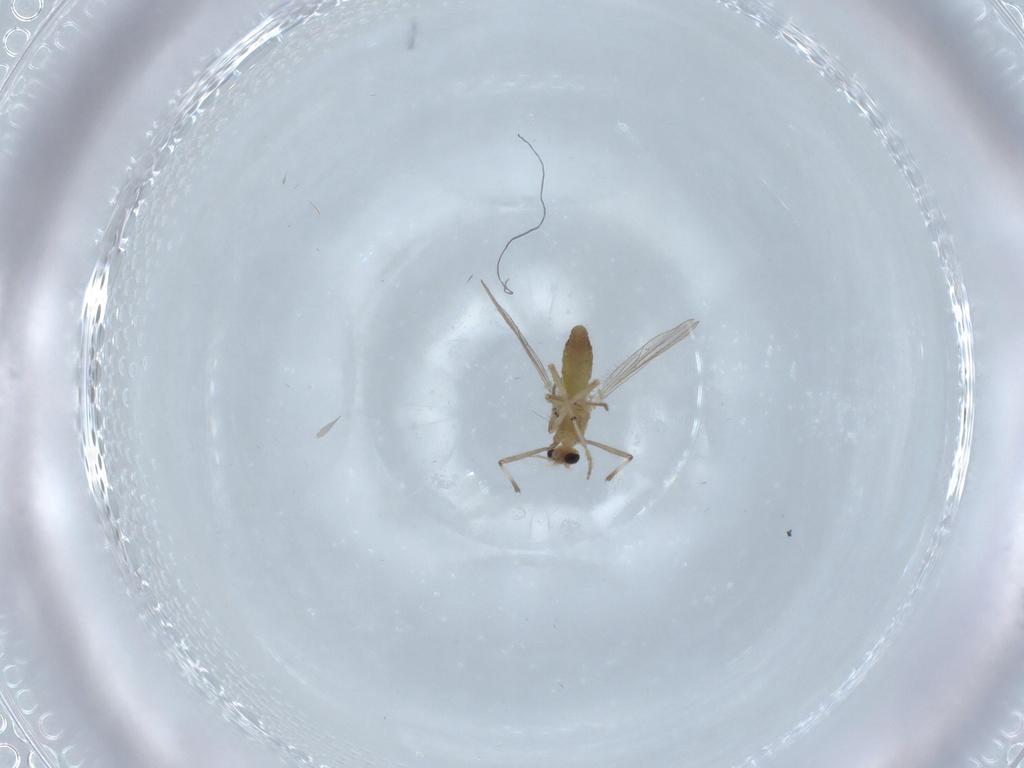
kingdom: Animalia
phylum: Arthropoda
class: Insecta
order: Diptera
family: Chironomidae
